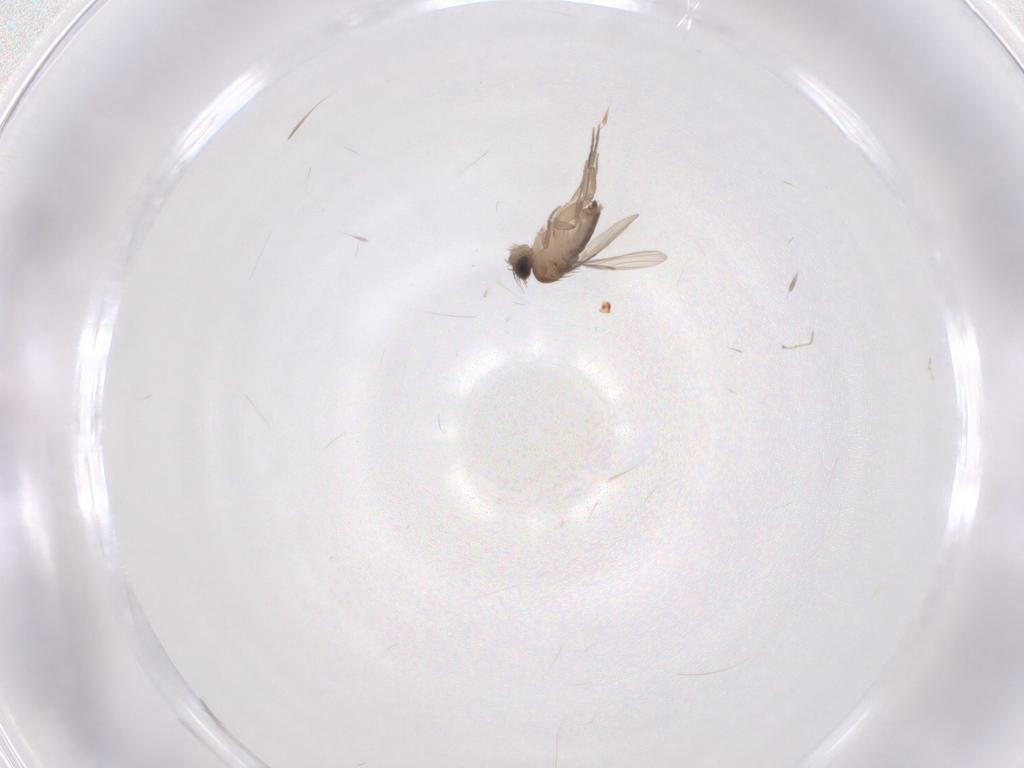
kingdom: Animalia
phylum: Arthropoda
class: Insecta
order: Diptera
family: Phoridae
